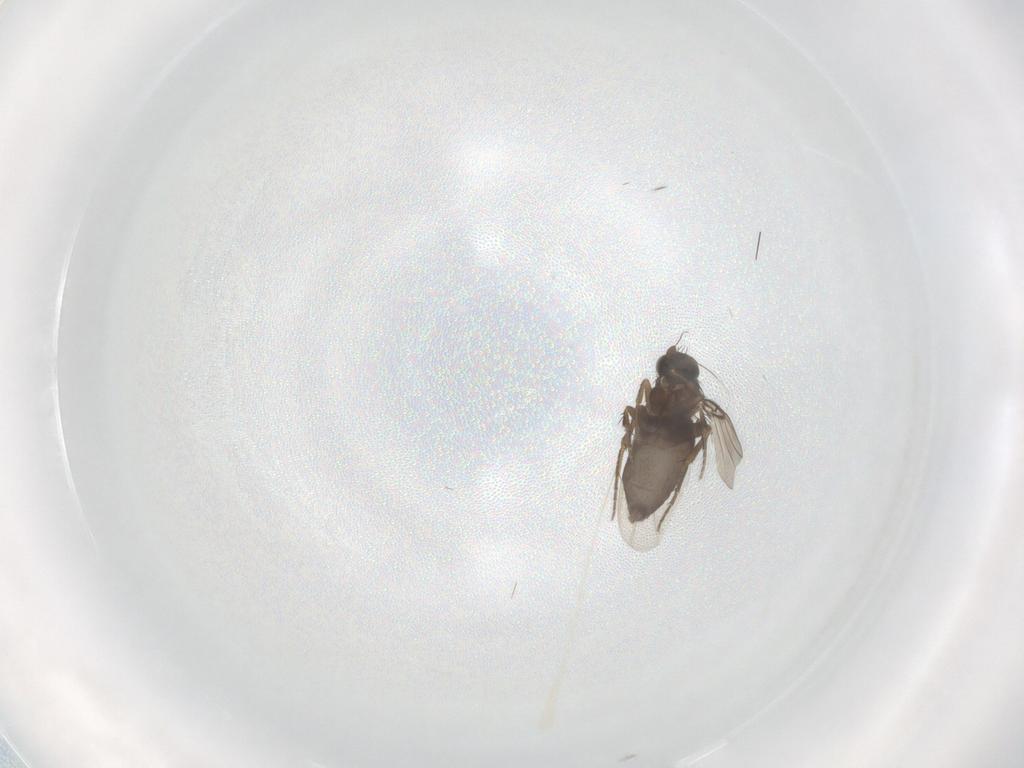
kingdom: Animalia
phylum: Arthropoda
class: Insecta
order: Diptera
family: Phoridae
